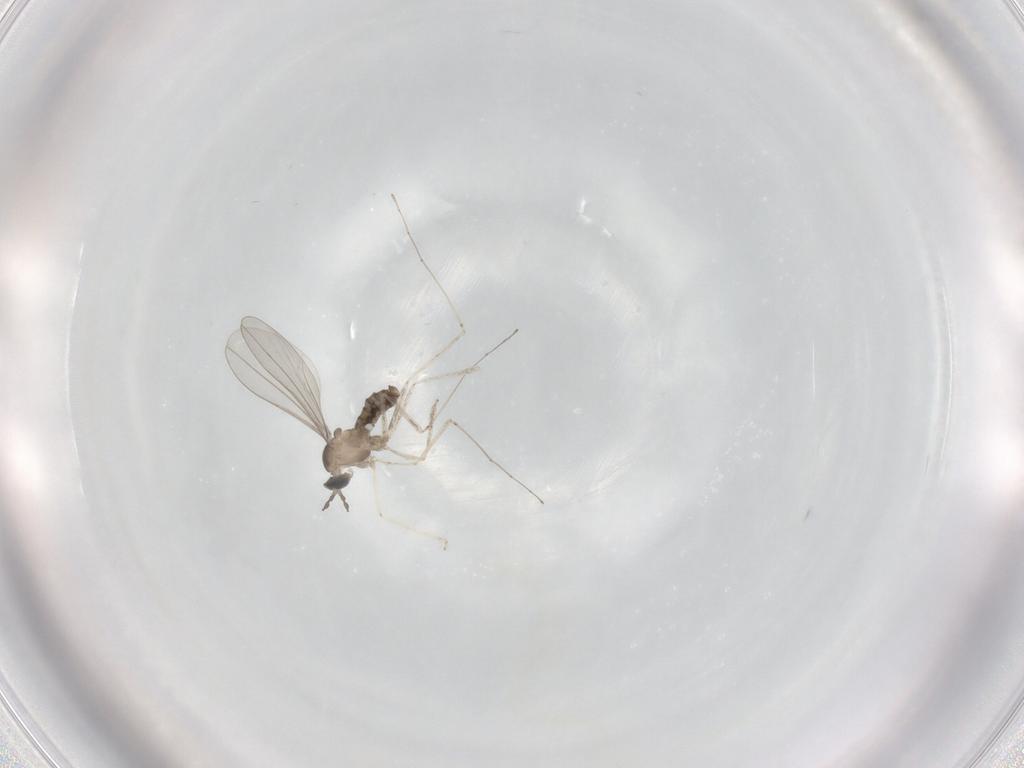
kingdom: Animalia
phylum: Arthropoda
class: Insecta
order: Diptera
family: Cecidomyiidae
